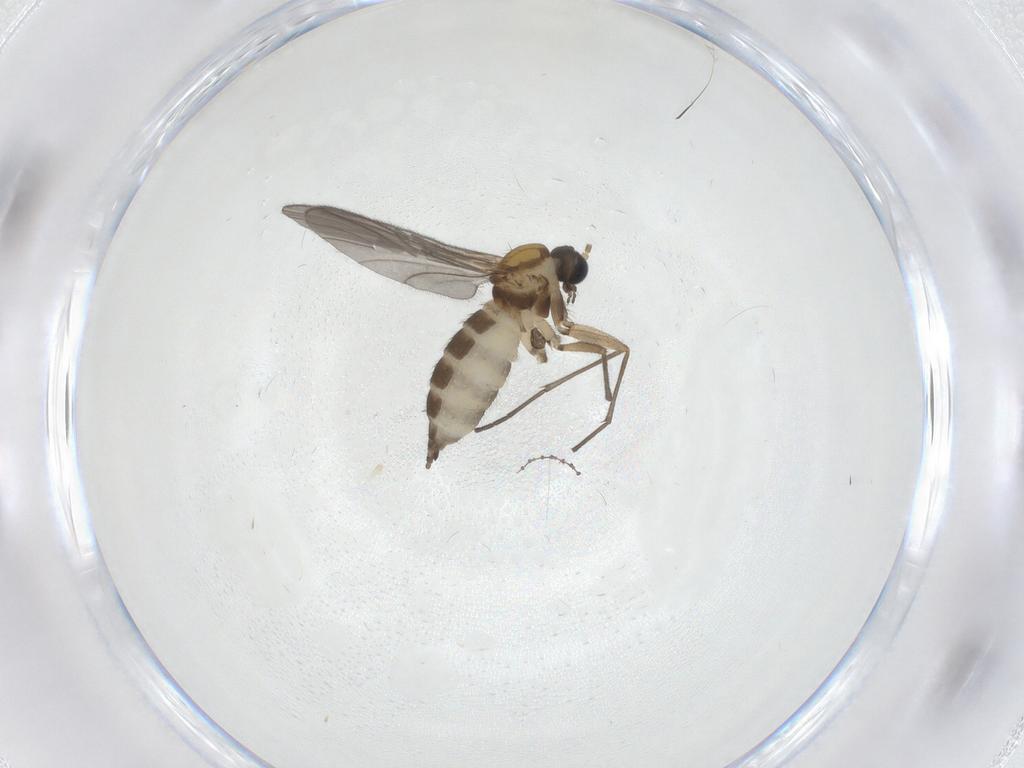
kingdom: Animalia
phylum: Arthropoda
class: Insecta
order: Diptera
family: Sciaridae
